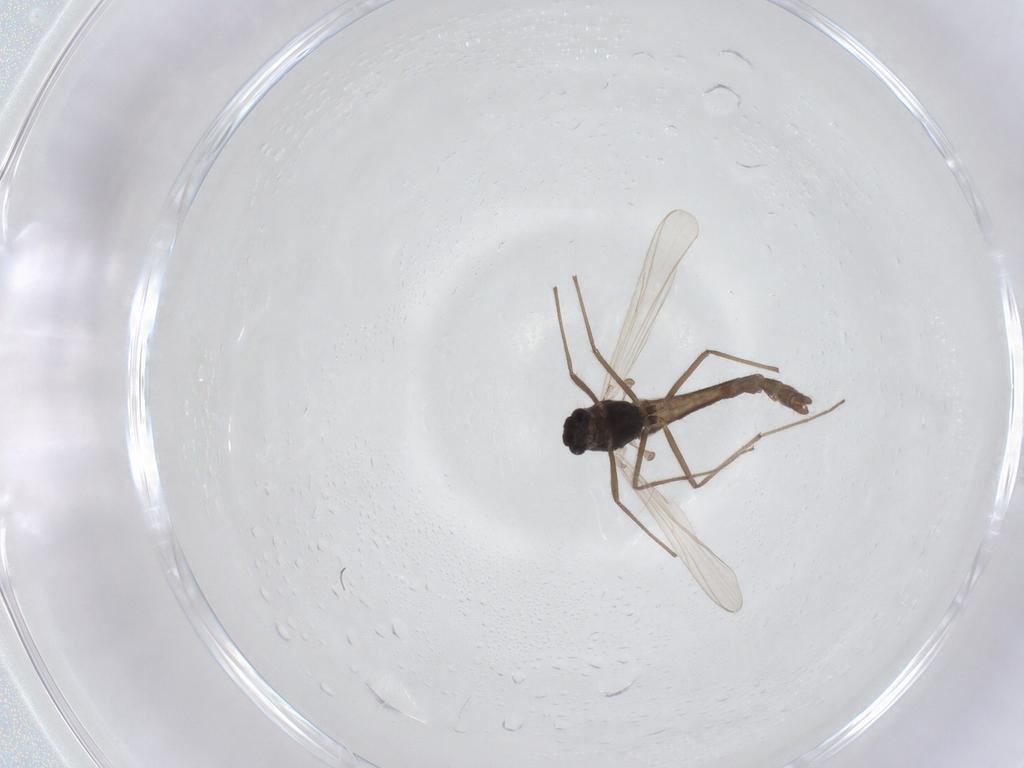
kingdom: Animalia
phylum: Arthropoda
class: Insecta
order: Diptera
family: Chironomidae
